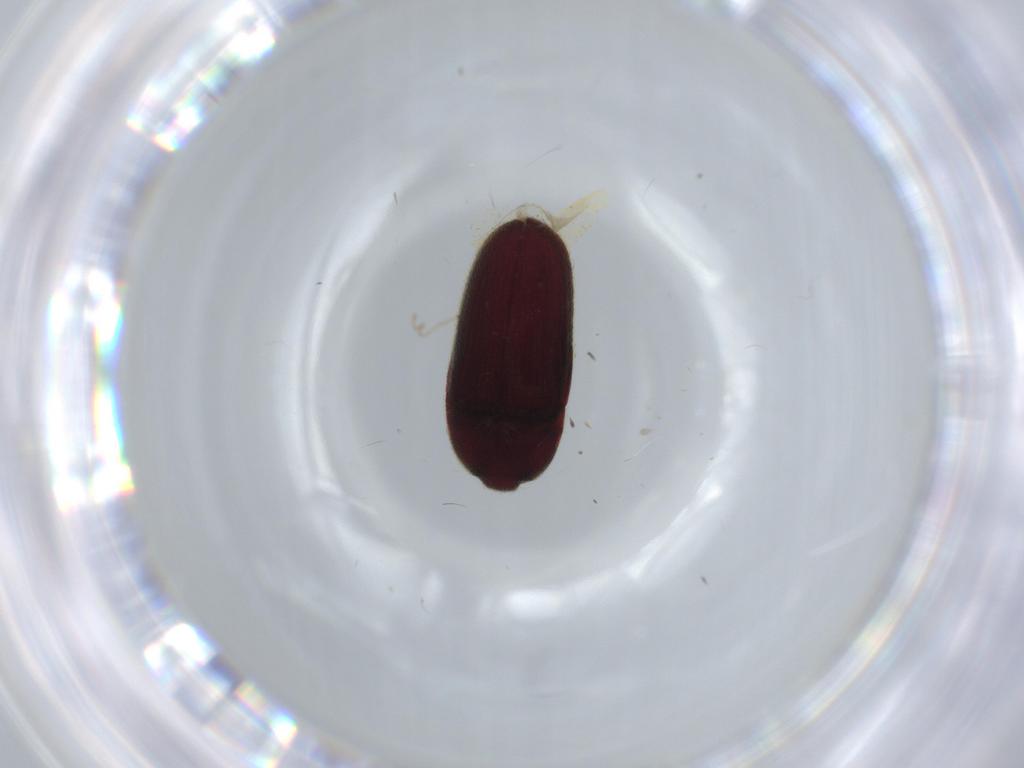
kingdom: Animalia
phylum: Arthropoda
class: Insecta
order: Coleoptera
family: Throscidae
